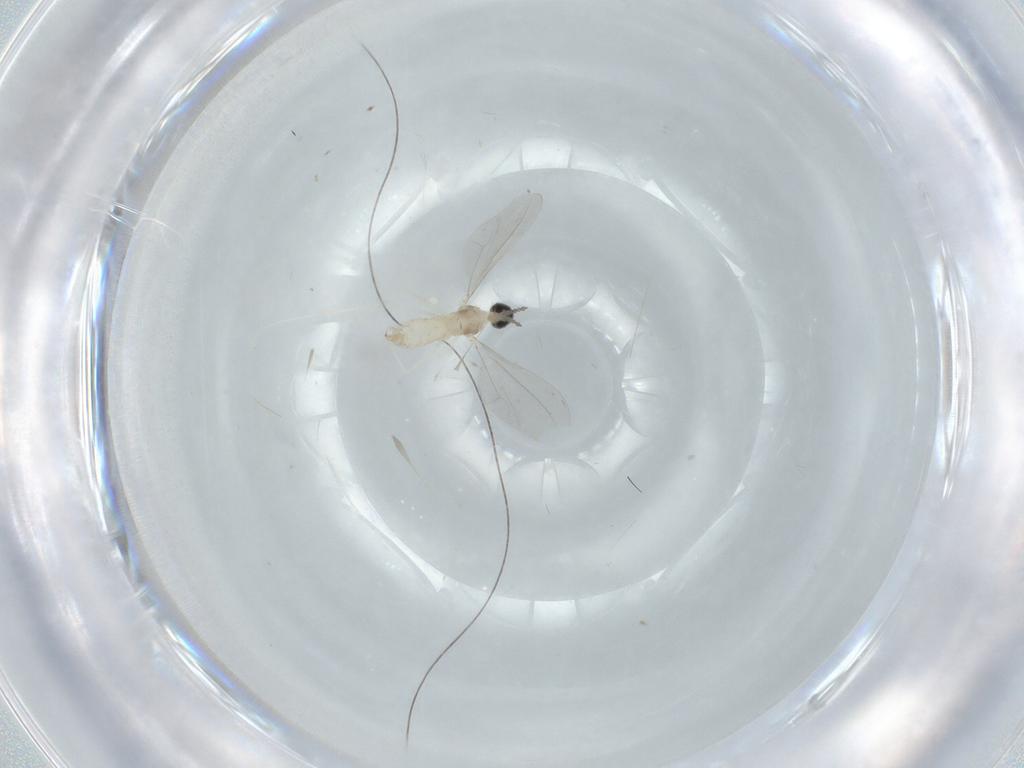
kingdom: Animalia
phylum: Arthropoda
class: Insecta
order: Diptera
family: Cecidomyiidae
